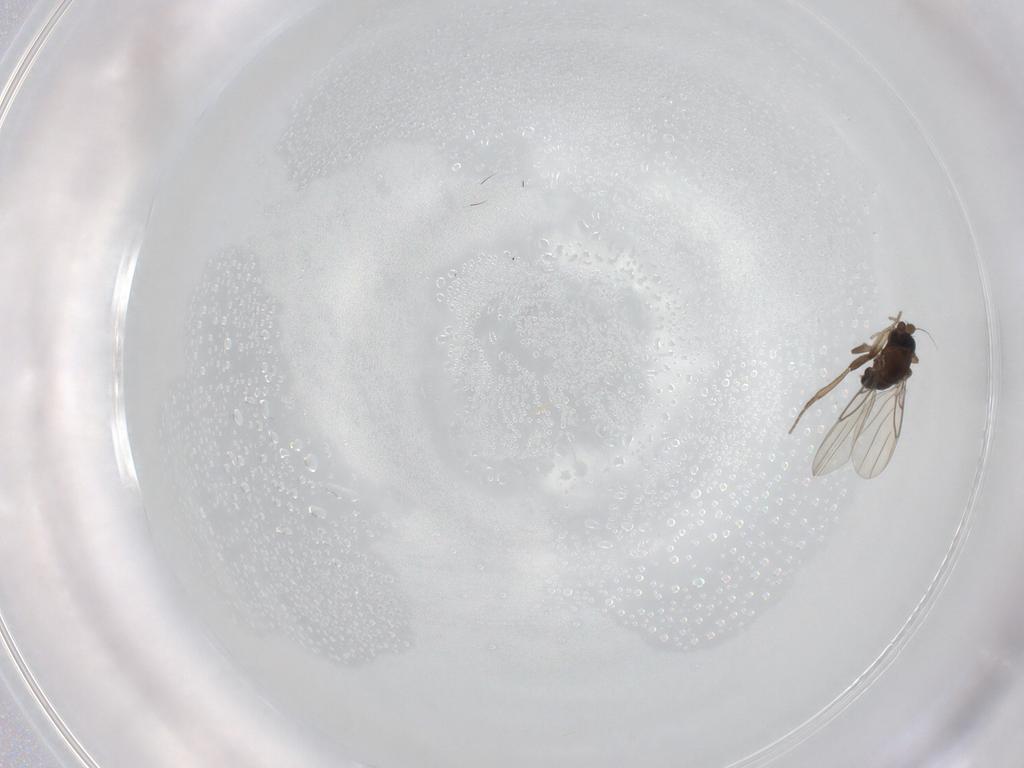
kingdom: Animalia
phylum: Arthropoda
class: Insecta
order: Diptera
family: Phoridae
